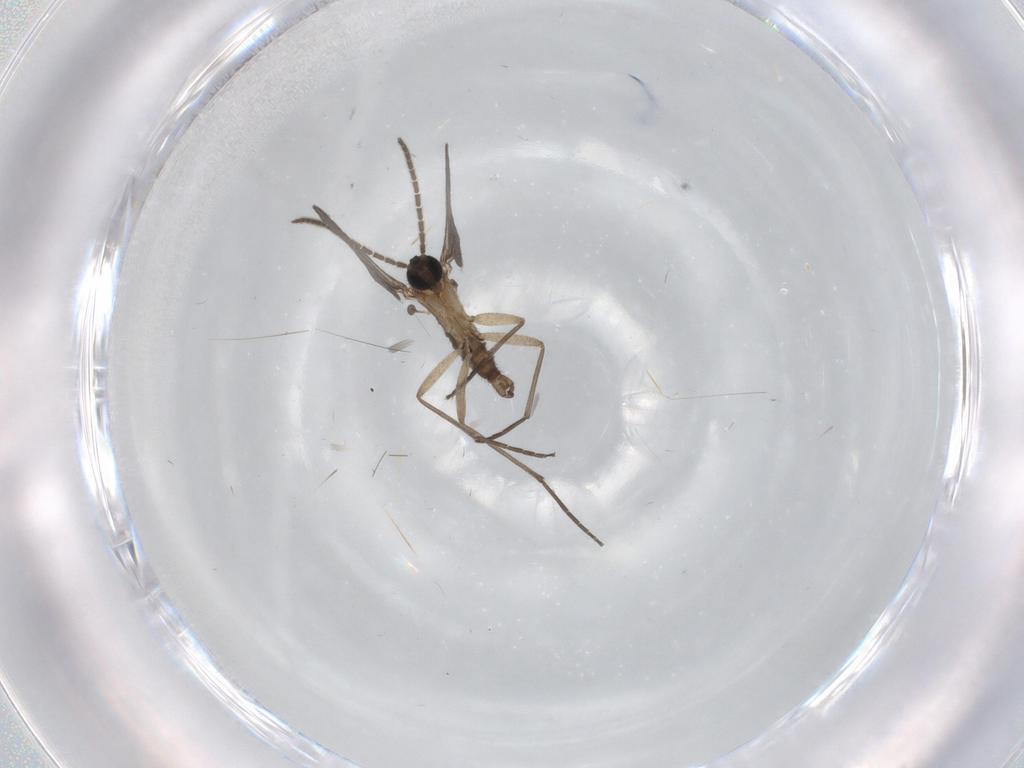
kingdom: Animalia
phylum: Arthropoda
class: Insecta
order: Diptera
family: Sciaridae
